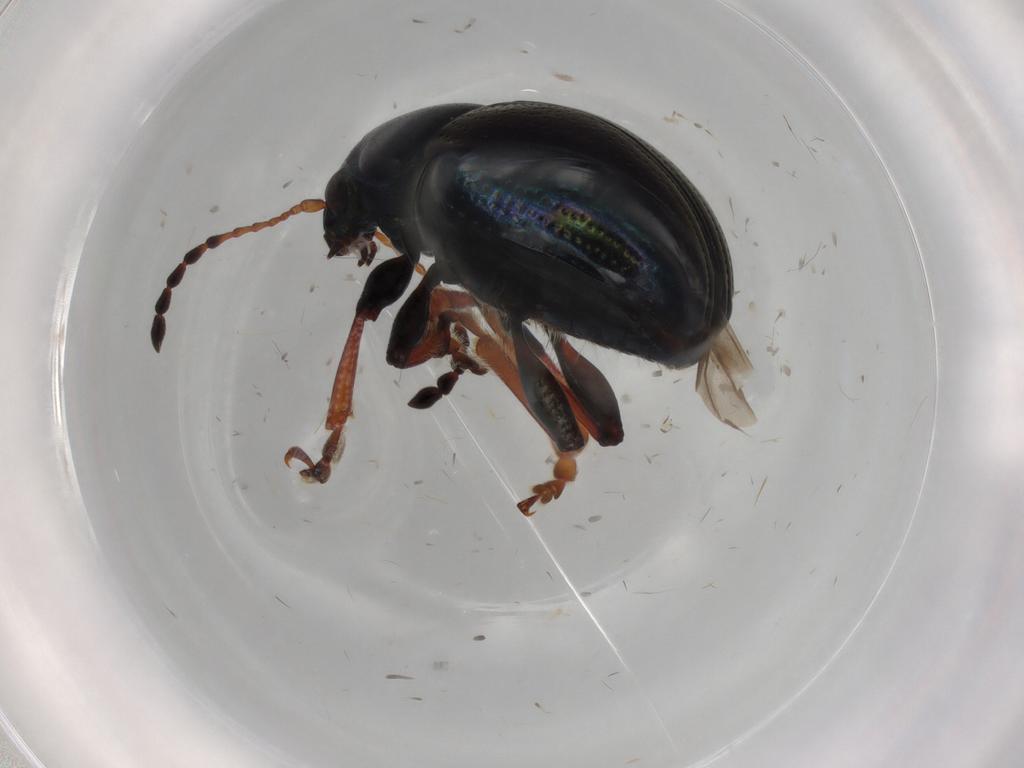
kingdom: Animalia
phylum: Arthropoda
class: Insecta
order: Coleoptera
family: Chrysomelidae
